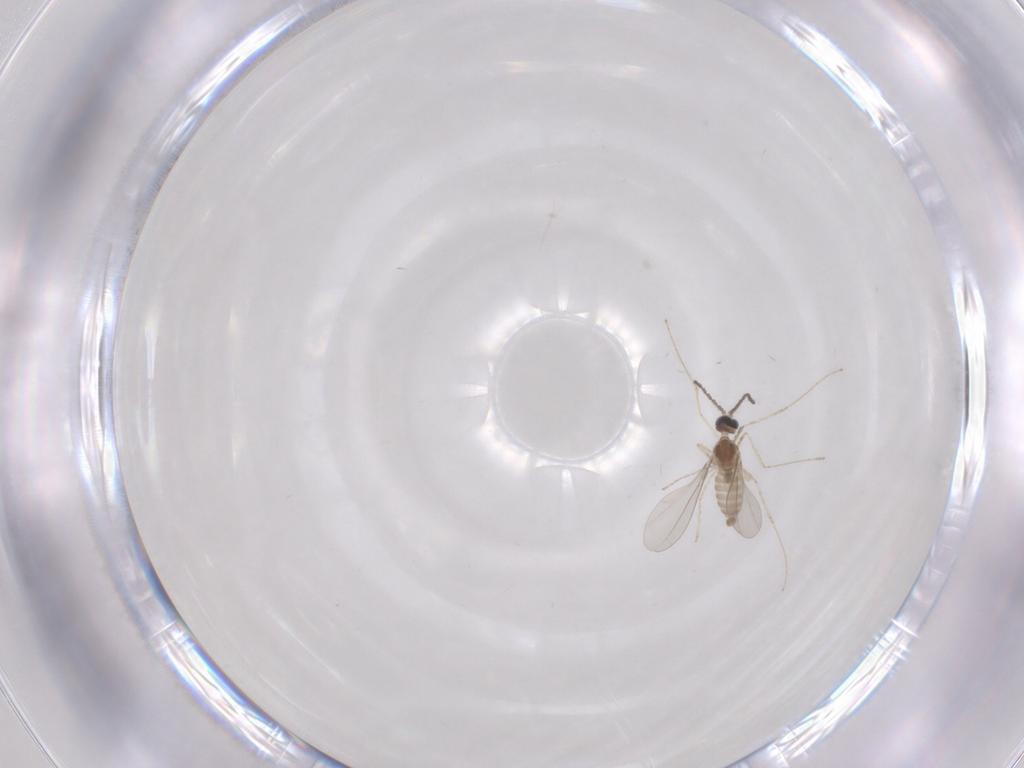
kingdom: Animalia
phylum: Arthropoda
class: Insecta
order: Diptera
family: Cecidomyiidae
